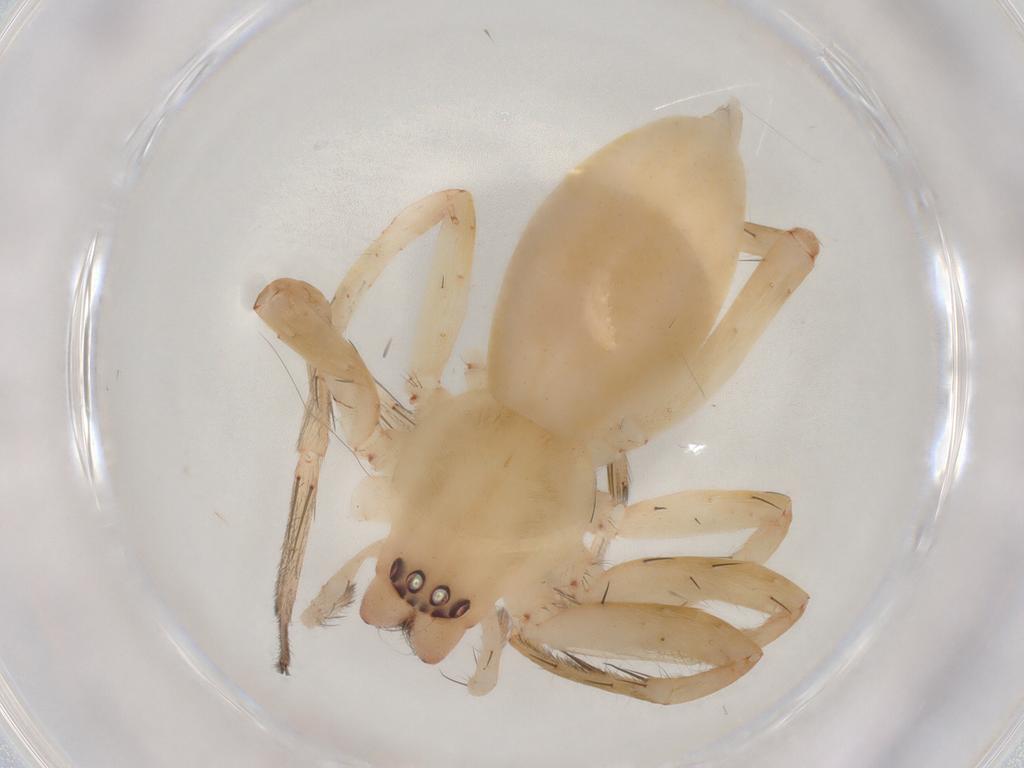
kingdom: Animalia
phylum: Arthropoda
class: Arachnida
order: Araneae
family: Anyphaenidae
